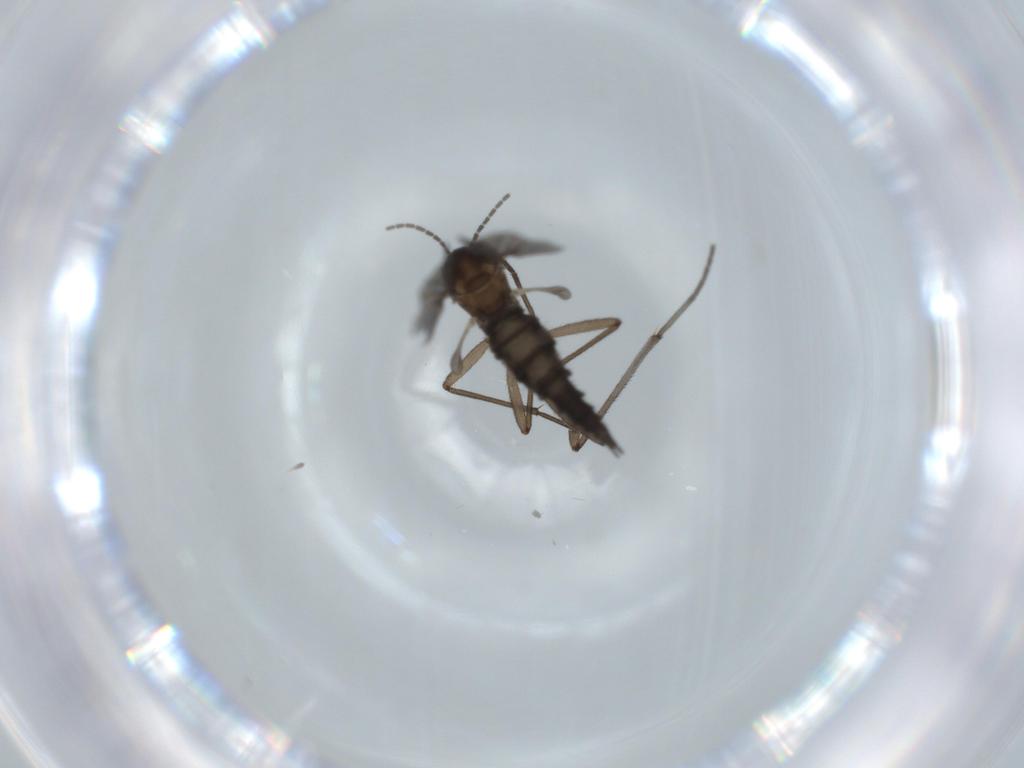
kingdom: Animalia
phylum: Arthropoda
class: Insecta
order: Diptera
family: Sciaridae
